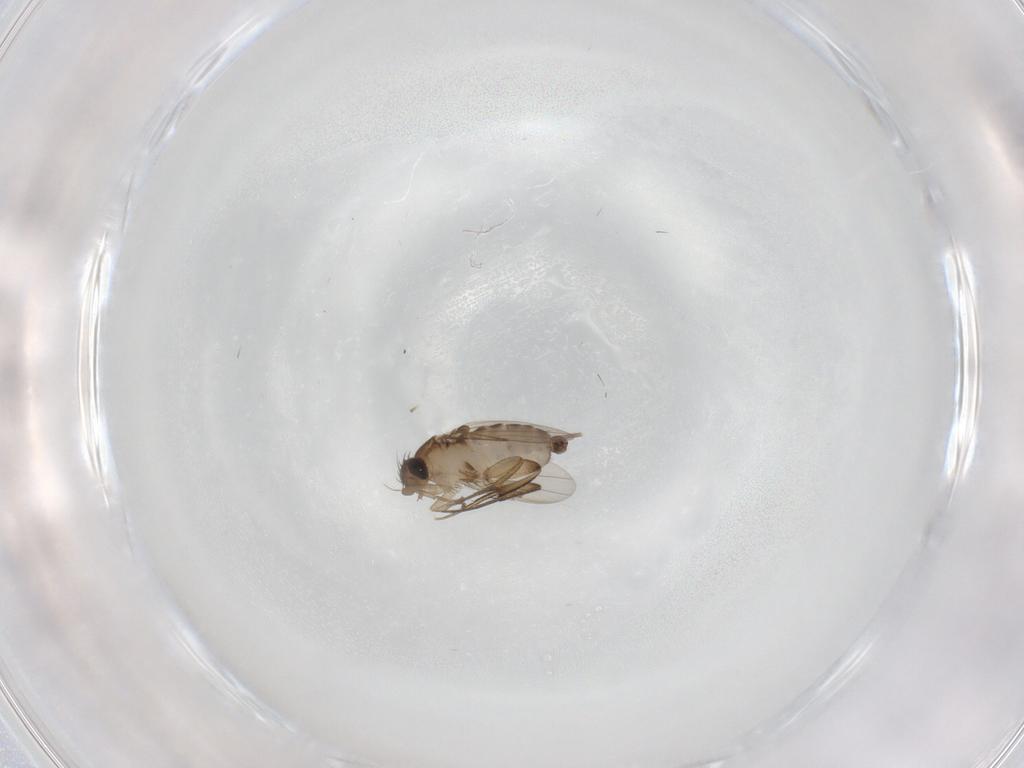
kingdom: Animalia
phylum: Arthropoda
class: Insecta
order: Diptera
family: Phoridae
